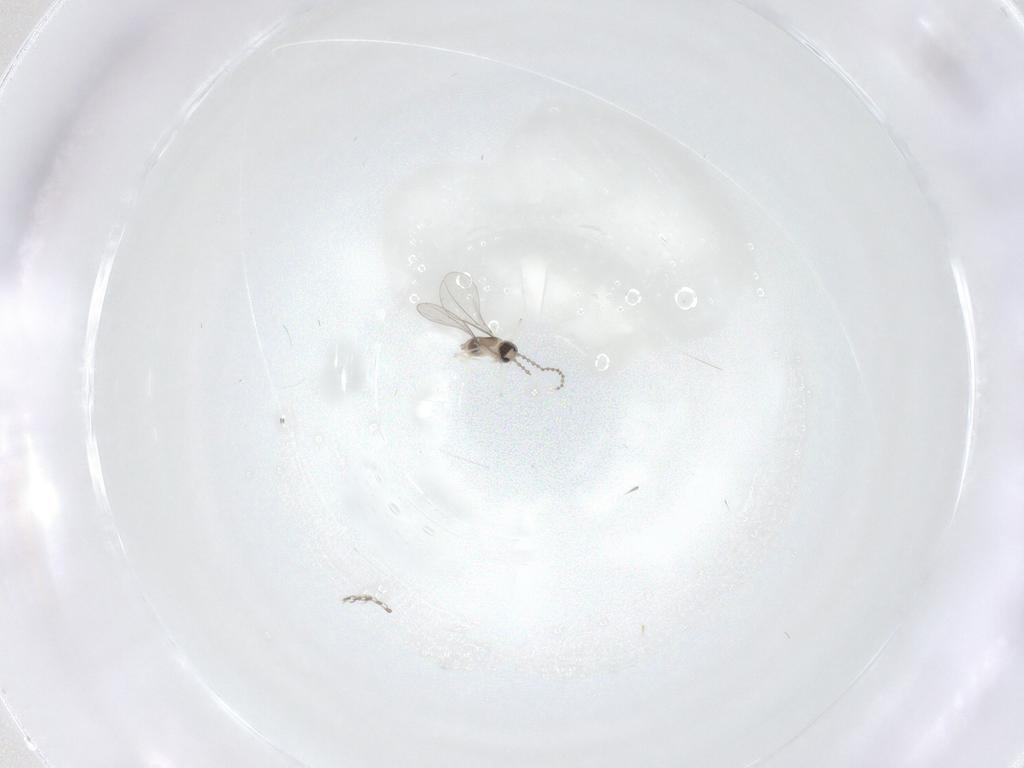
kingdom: Animalia
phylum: Arthropoda
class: Insecta
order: Diptera
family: Cecidomyiidae
